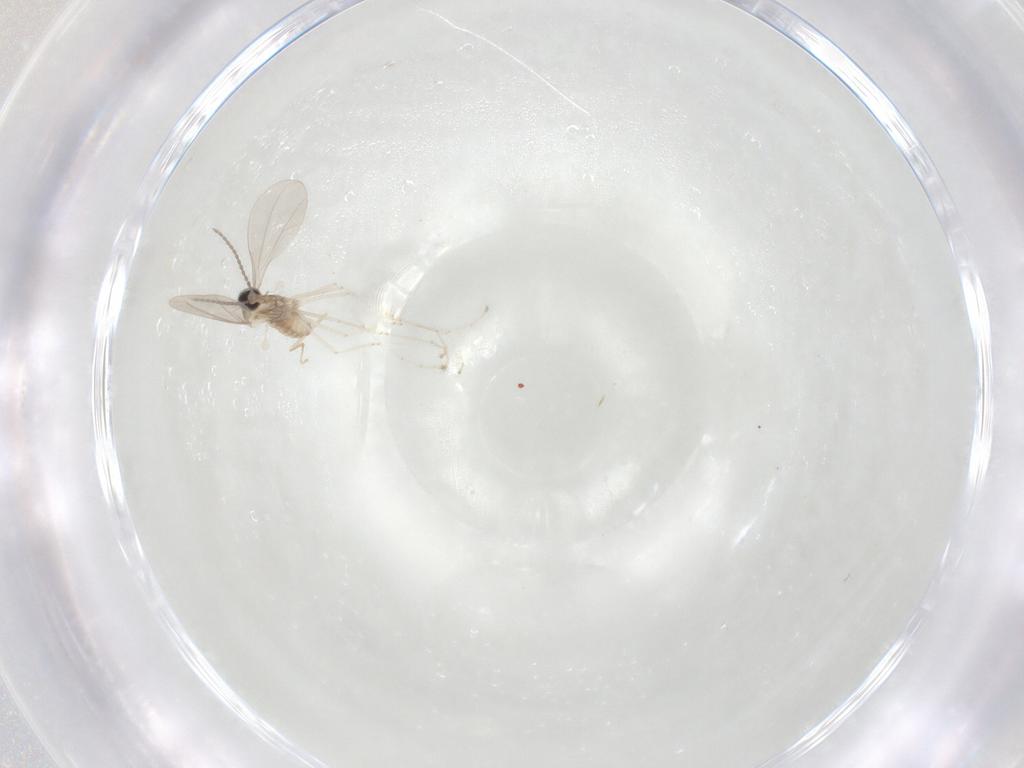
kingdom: Animalia
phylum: Arthropoda
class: Insecta
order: Diptera
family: Cecidomyiidae
